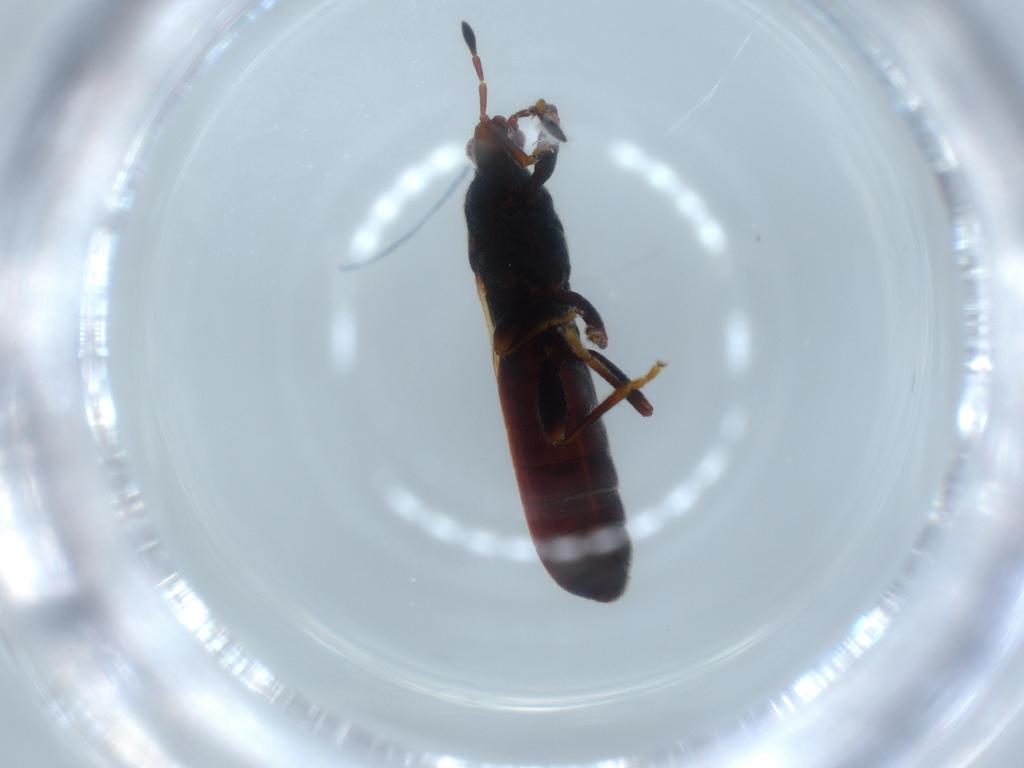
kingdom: Animalia
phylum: Arthropoda
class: Insecta
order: Hemiptera
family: Blissidae
